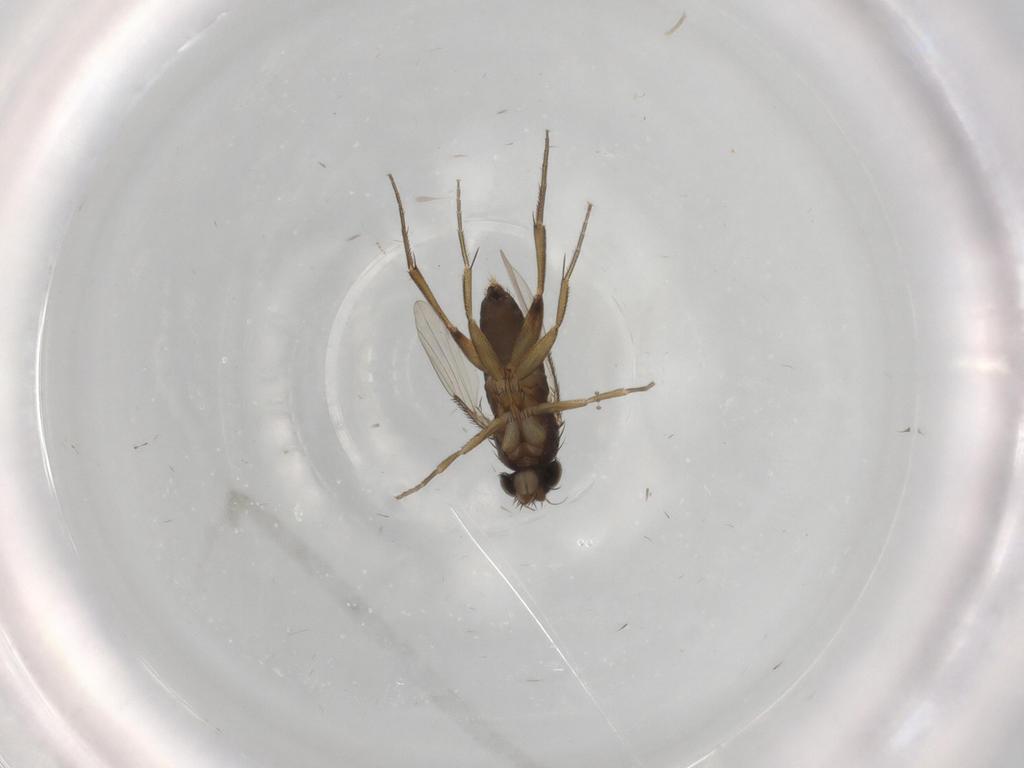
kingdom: Animalia
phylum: Arthropoda
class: Insecta
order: Diptera
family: Phoridae
